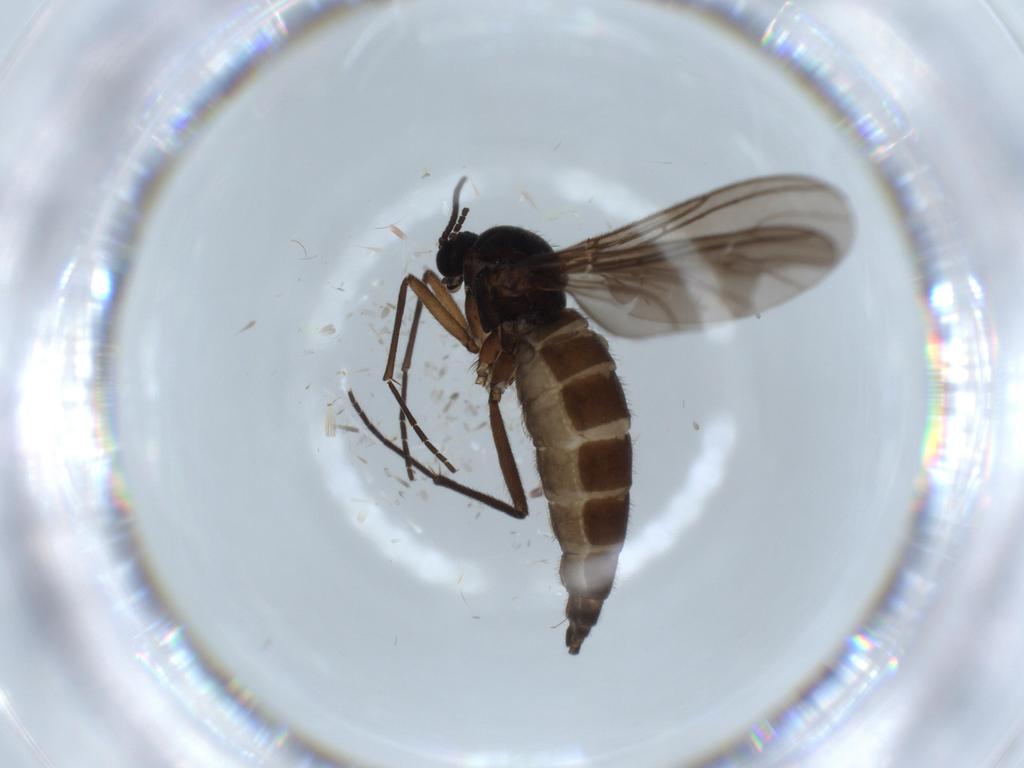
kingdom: Animalia
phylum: Arthropoda
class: Insecta
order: Diptera
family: Sciaridae
